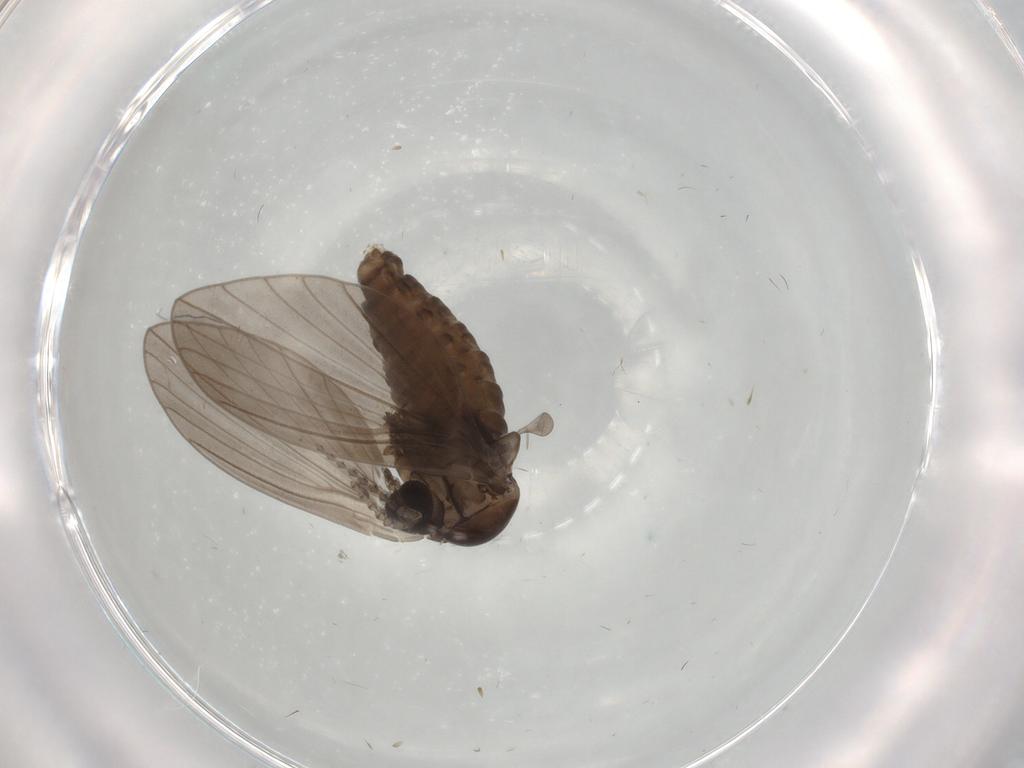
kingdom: Animalia
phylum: Arthropoda
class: Insecta
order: Diptera
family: Psychodidae
